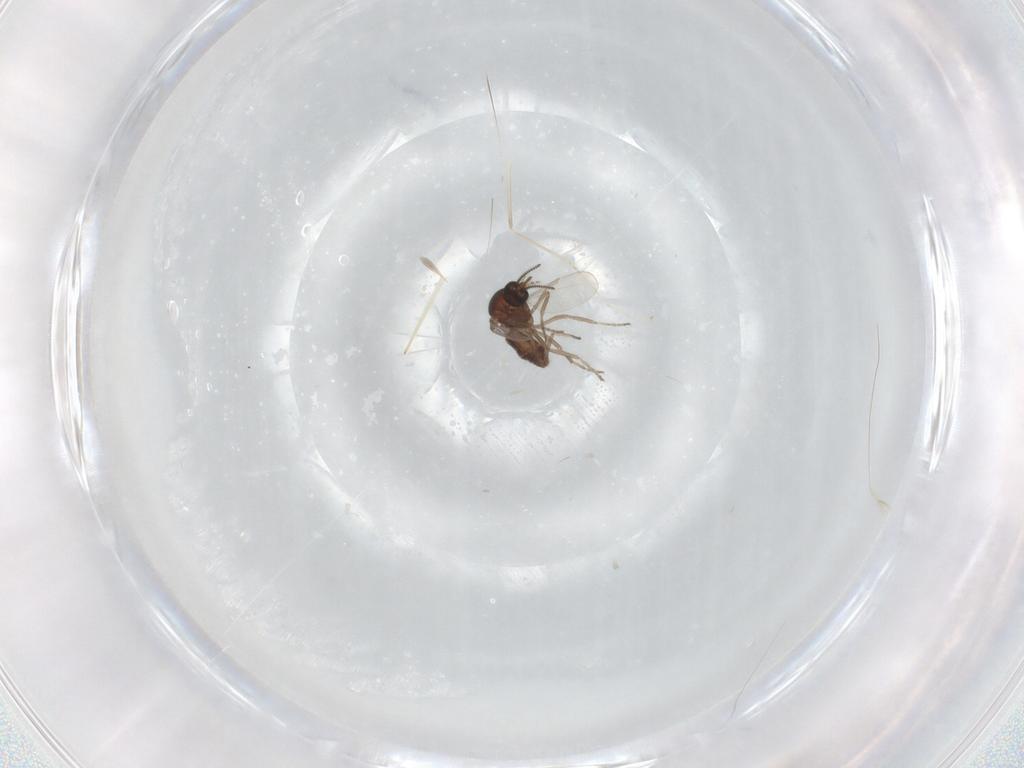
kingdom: Animalia
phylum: Arthropoda
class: Insecta
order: Diptera
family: Ceratopogonidae
